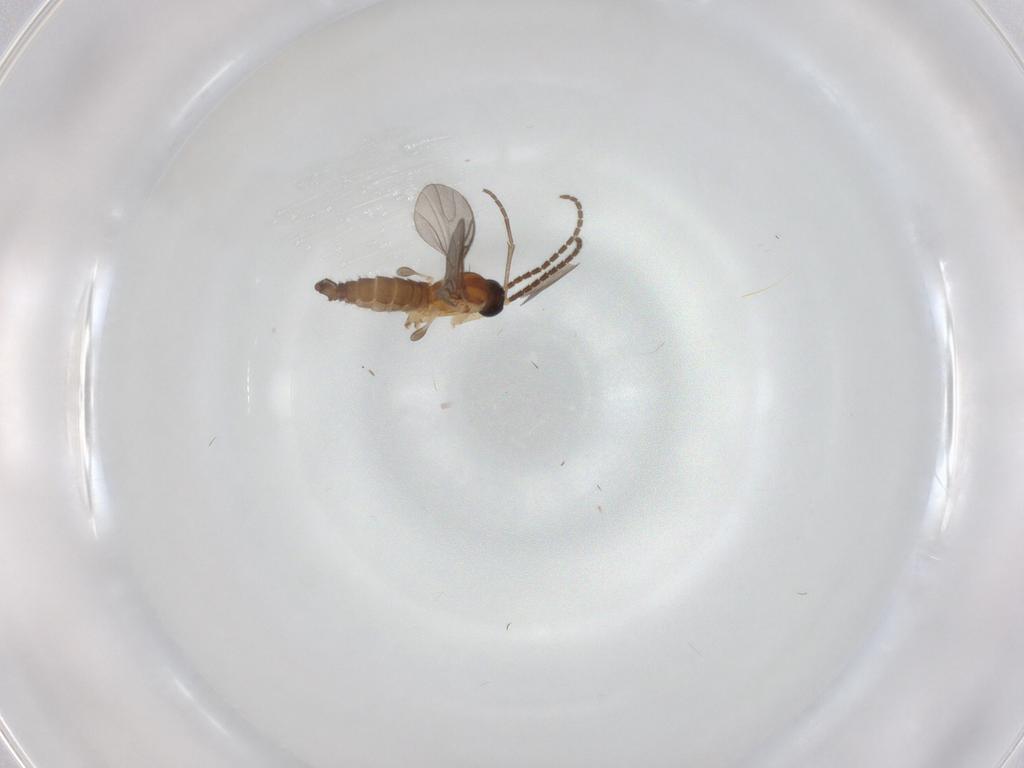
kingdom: Animalia
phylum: Arthropoda
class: Insecta
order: Diptera
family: Sciaridae
